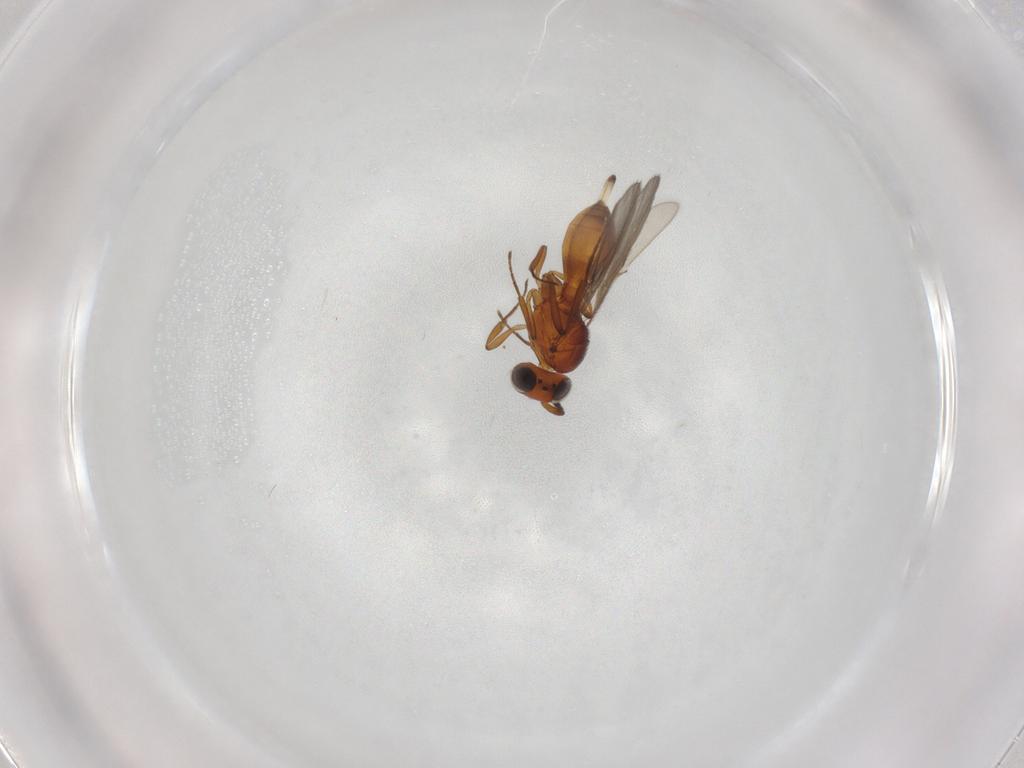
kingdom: Animalia
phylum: Arthropoda
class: Insecta
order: Hymenoptera
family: Scelionidae
